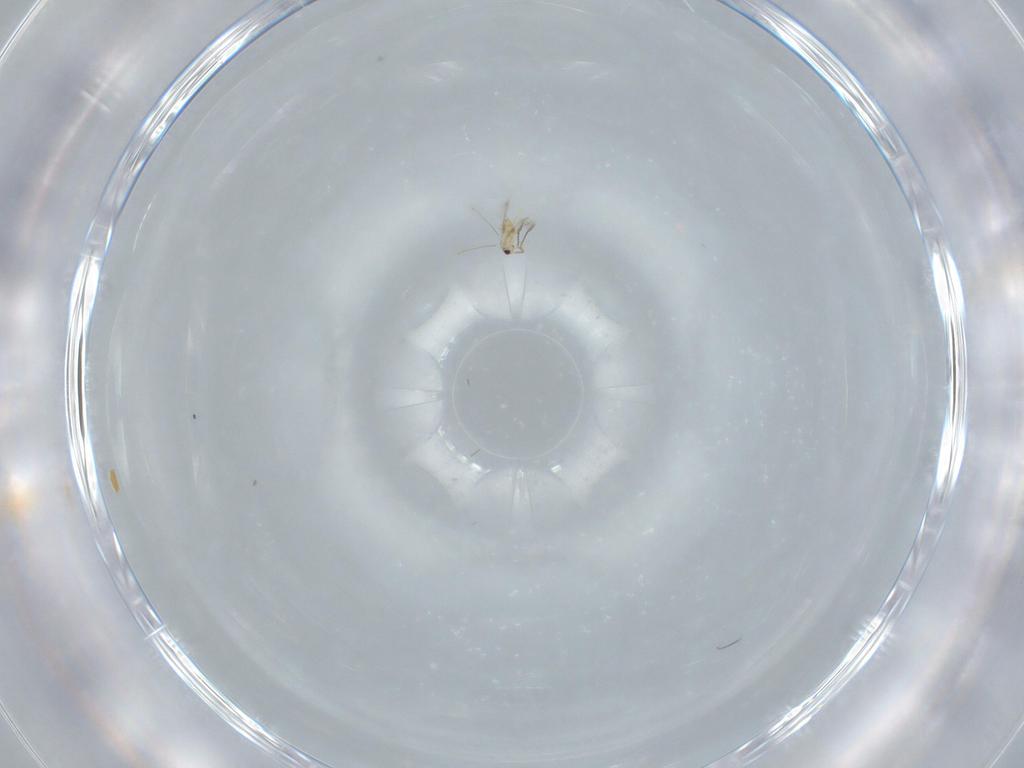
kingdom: Animalia
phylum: Arthropoda
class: Insecta
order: Hymenoptera
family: Mymaridae
